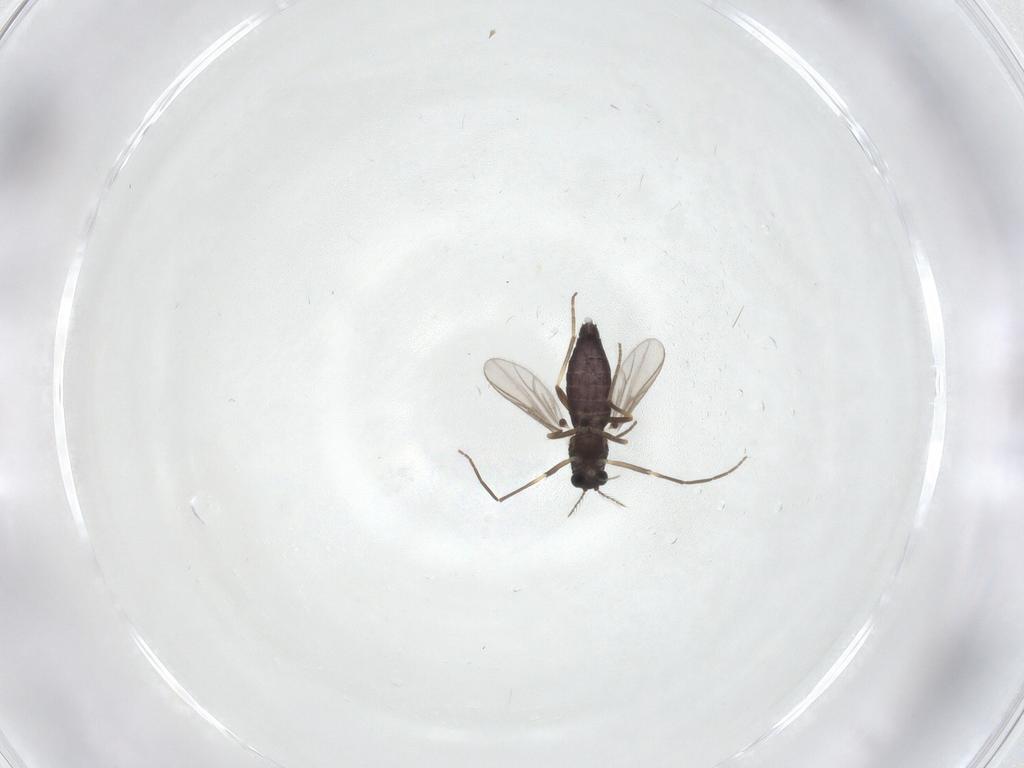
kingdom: Animalia
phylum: Arthropoda
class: Insecta
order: Diptera
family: Chironomidae
